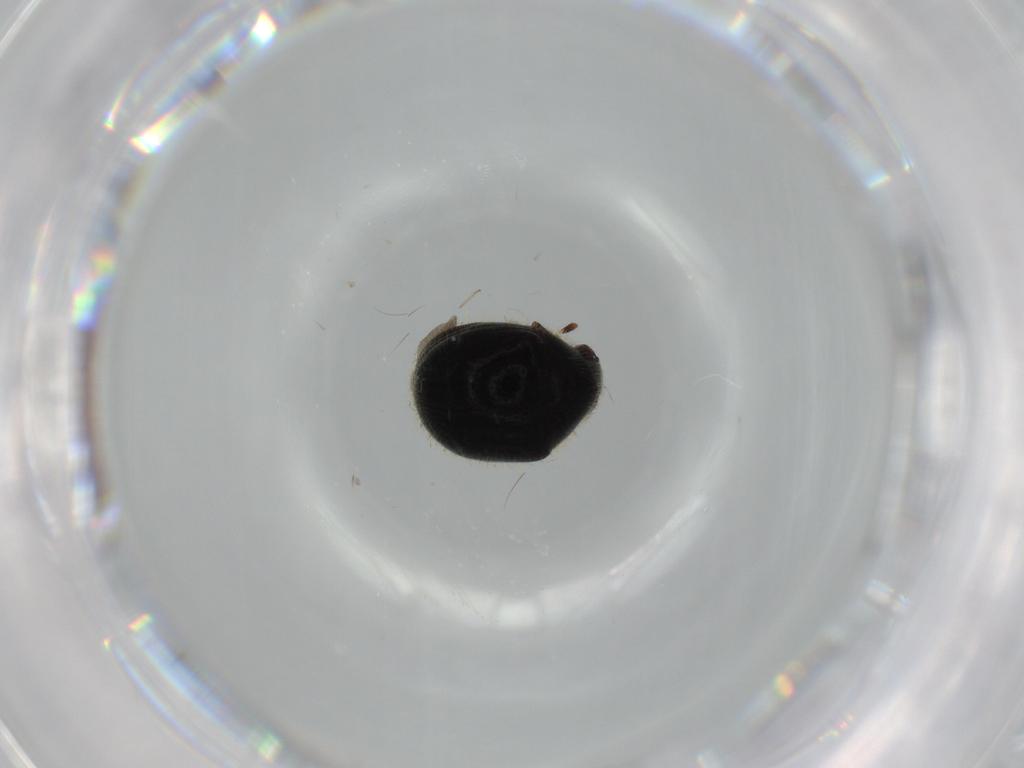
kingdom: Animalia
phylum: Arthropoda
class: Insecta
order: Coleoptera
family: Ptinidae
